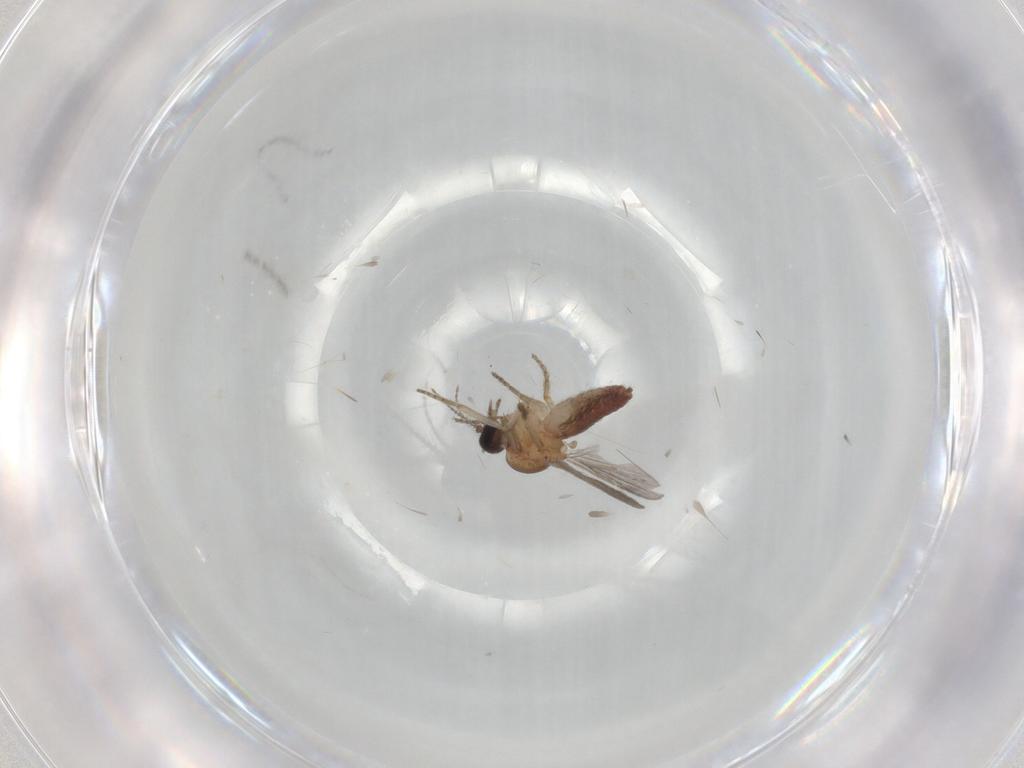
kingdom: Animalia
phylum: Arthropoda
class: Insecta
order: Diptera
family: Ceratopogonidae
